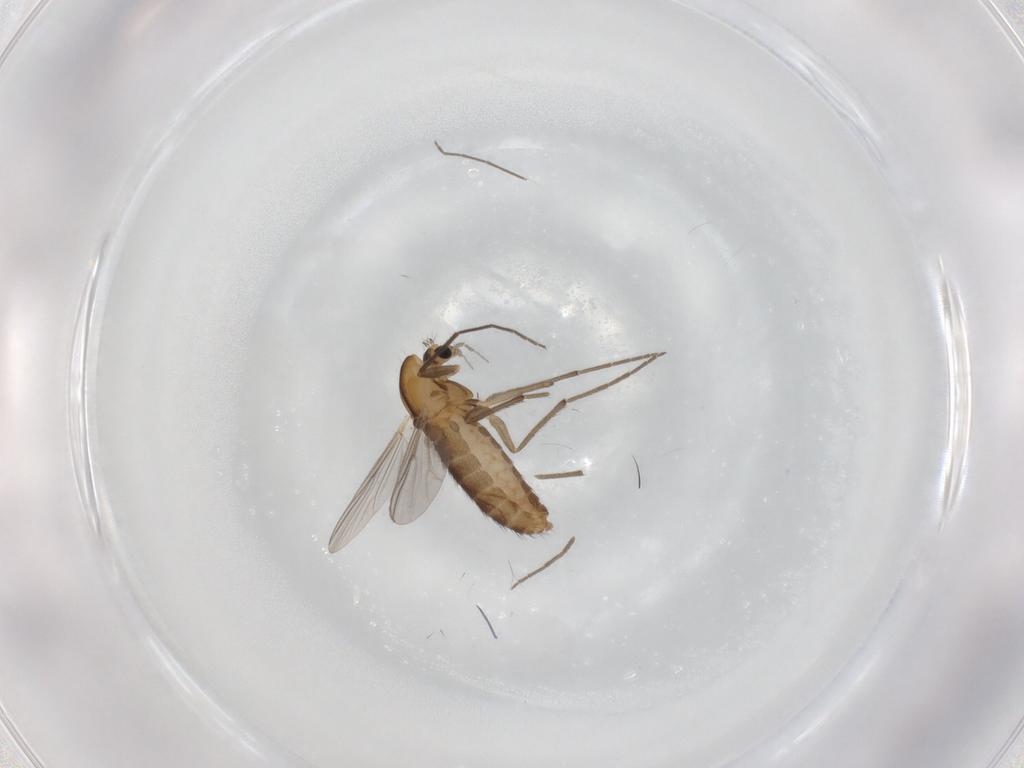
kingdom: Animalia
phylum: Arthropoda
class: Insecta
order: Diptera
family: Chironomidae
